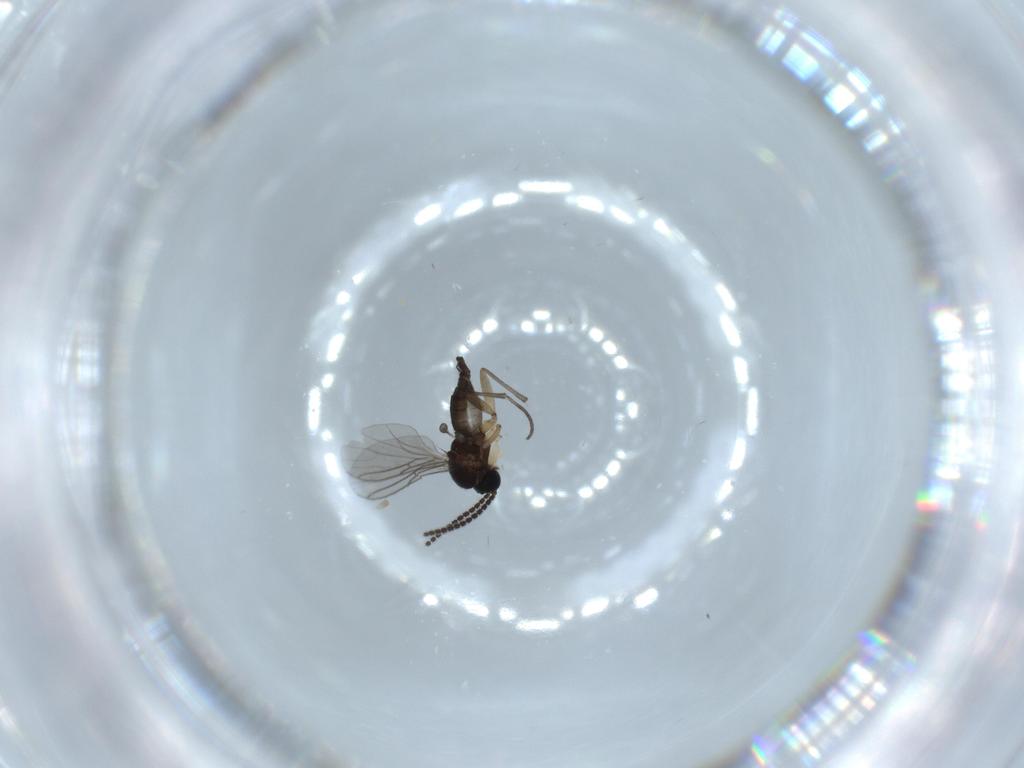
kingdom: Animalia
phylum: Arthropoda
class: Insecta
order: Diptera
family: Sciaridae
